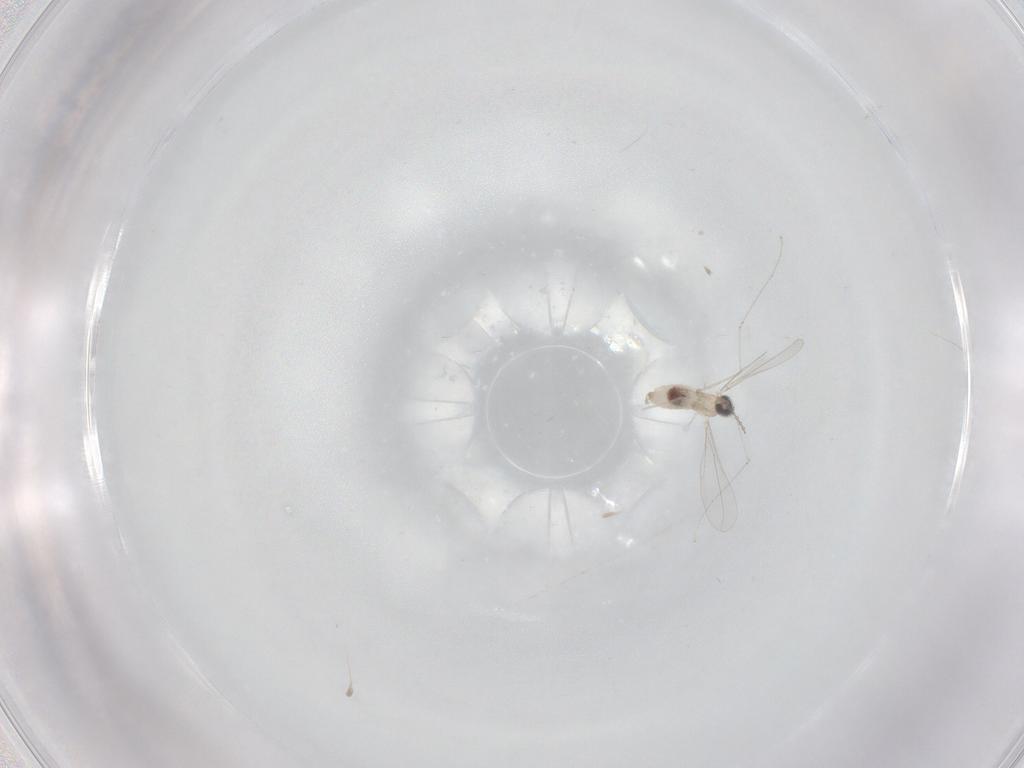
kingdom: Animalia
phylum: Arthropoda
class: Insecta
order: Diptera
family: Cecidomyiidae
